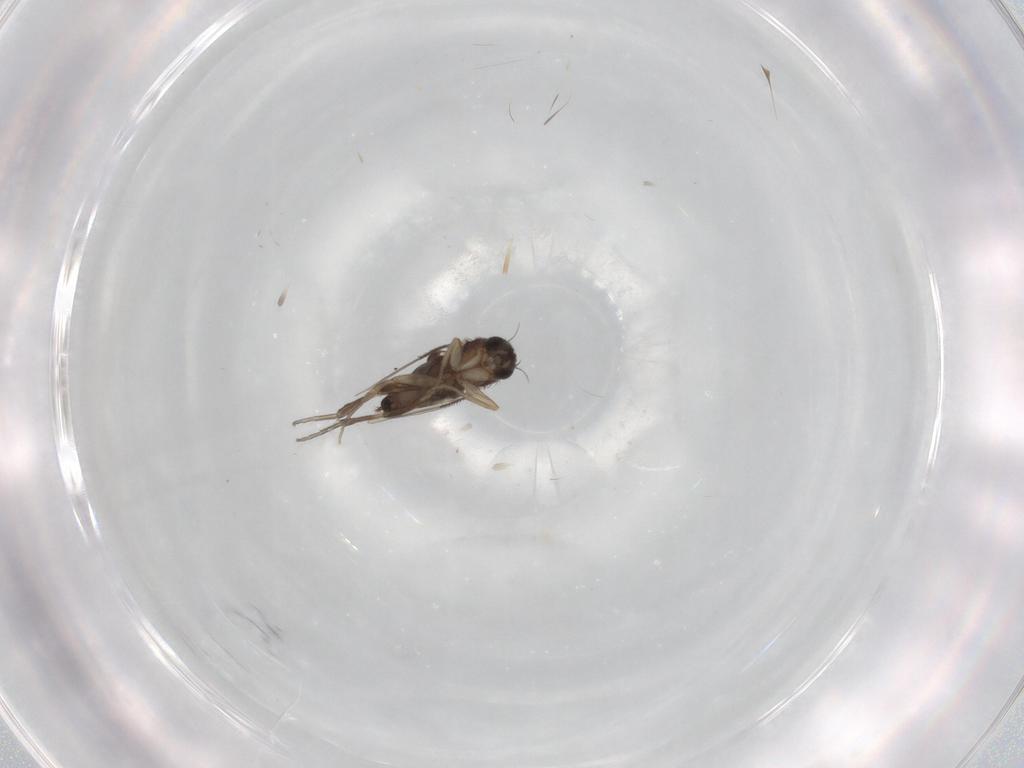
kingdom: Animalia
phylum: Arthropoda
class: Insecta
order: Diptera
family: Phoridae
